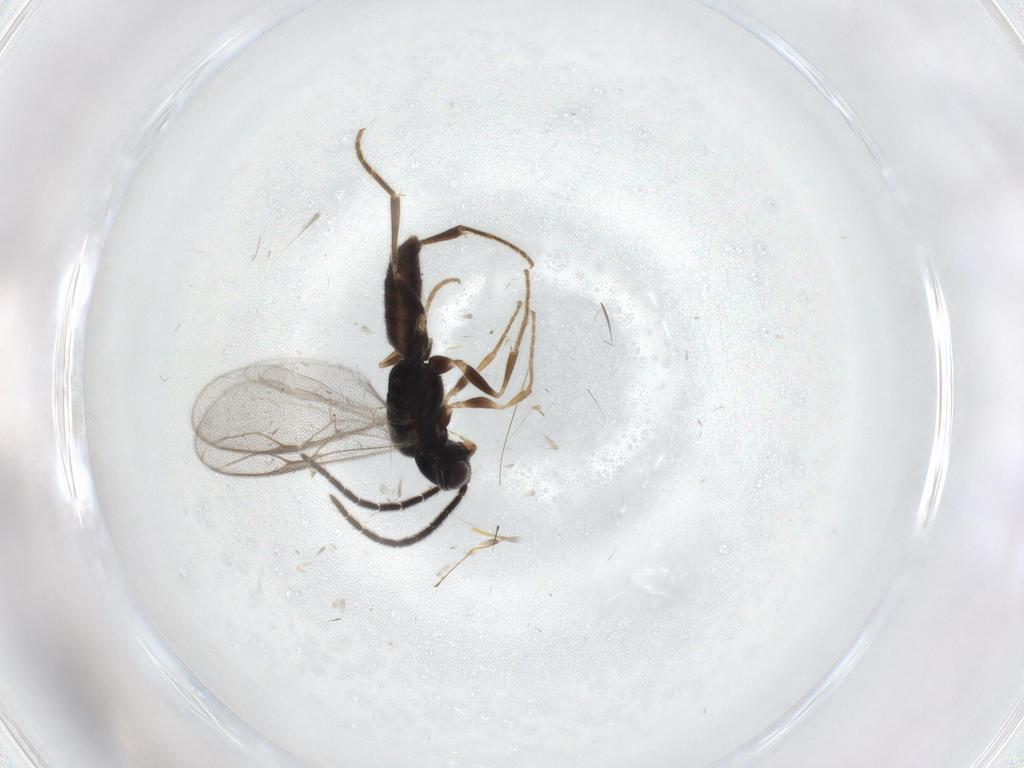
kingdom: Animalia
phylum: Arthropoda
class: Insecta
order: Hymenoptera
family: Dryinidae
